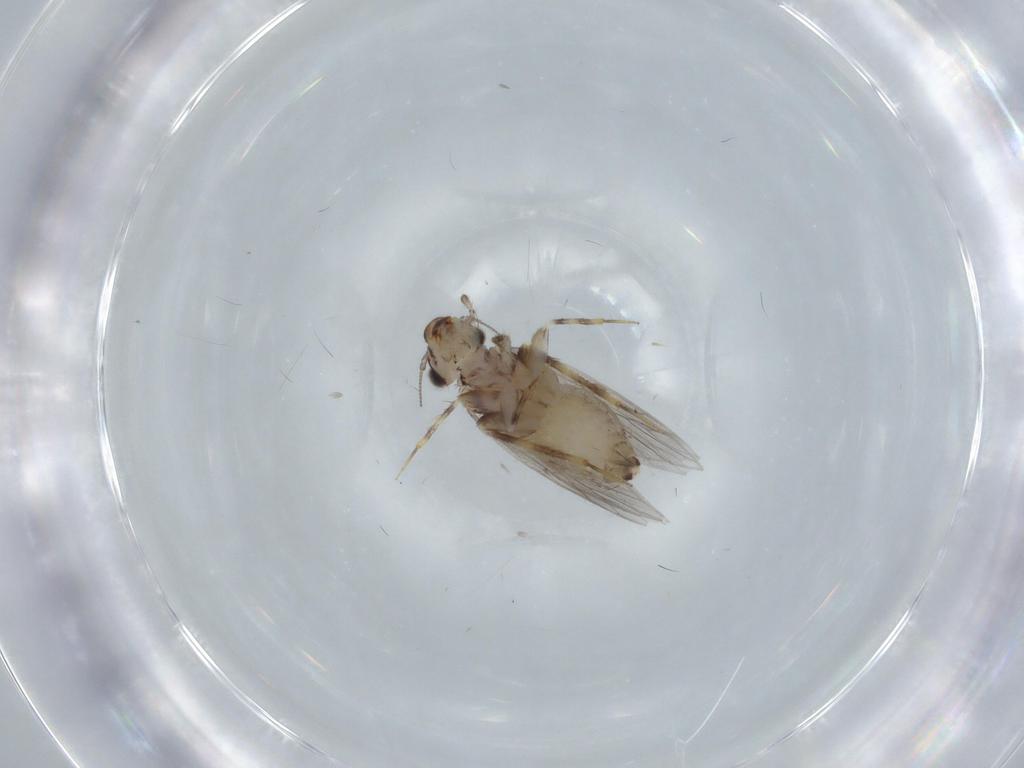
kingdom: Animalia
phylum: Arthropoda
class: Insecta
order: Psocodea
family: Lepidopsocidae
